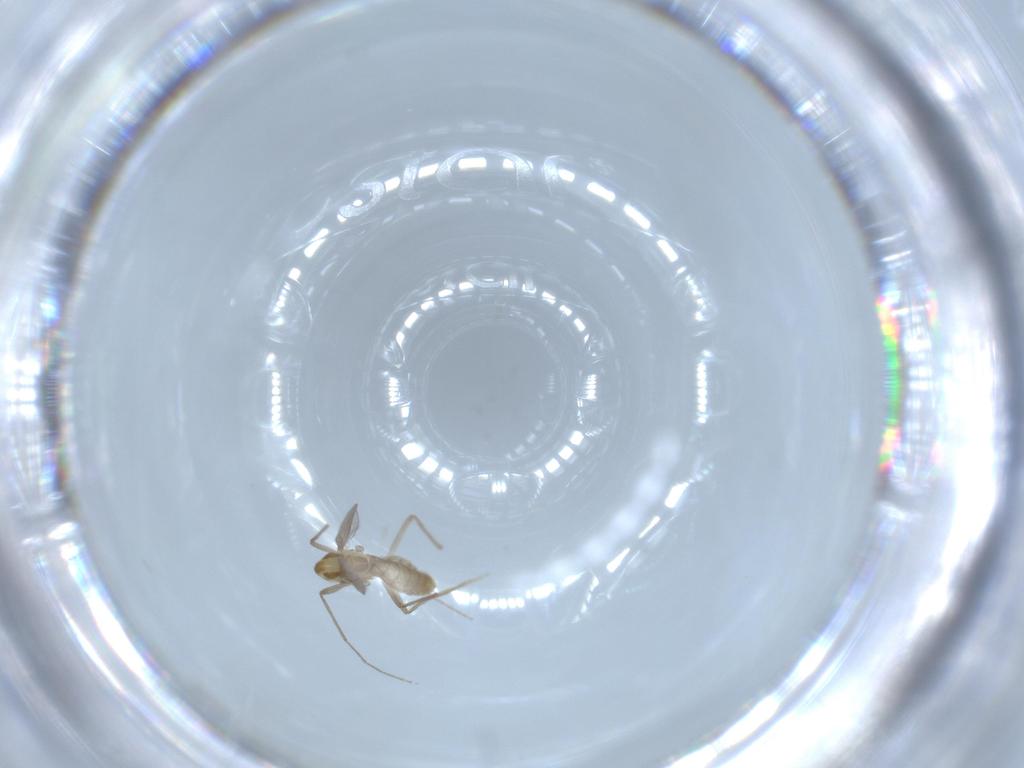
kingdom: Animalia
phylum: Arthropoda
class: Insecta
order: Diptera
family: Chironomidae
